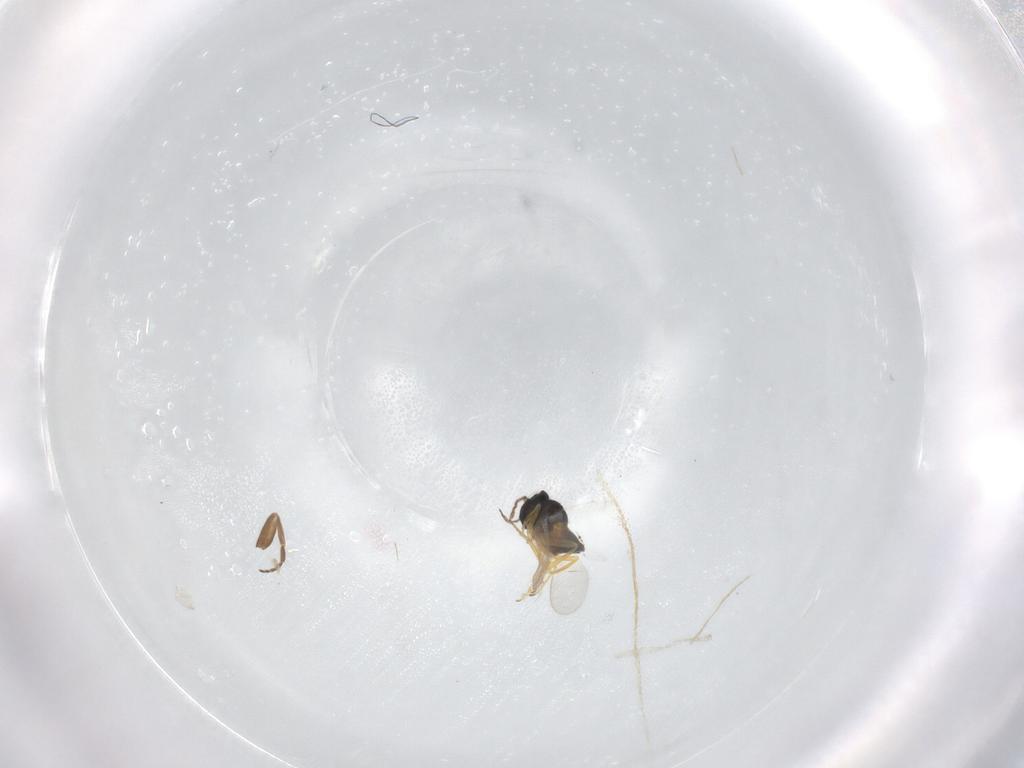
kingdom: Animalia
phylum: Arthropoda
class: Insecta
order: Hymenoptera
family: Encyrtidae
